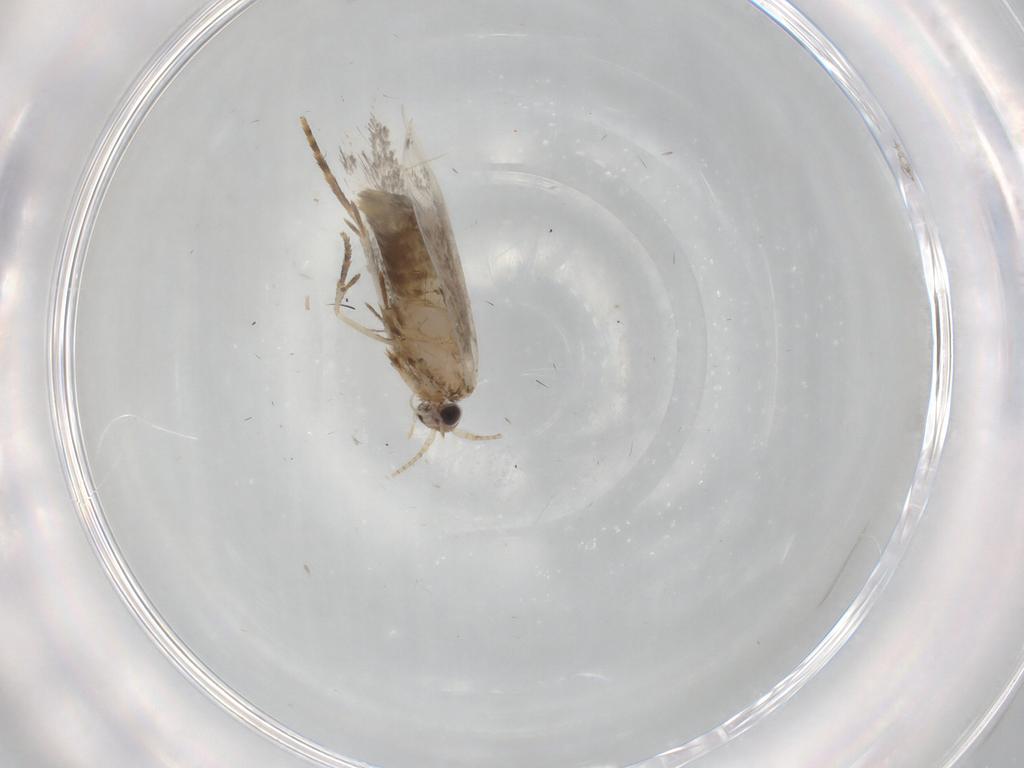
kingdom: Animalia
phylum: Arthropoda
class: Insecta
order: Lepidoptera
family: Tineidae
